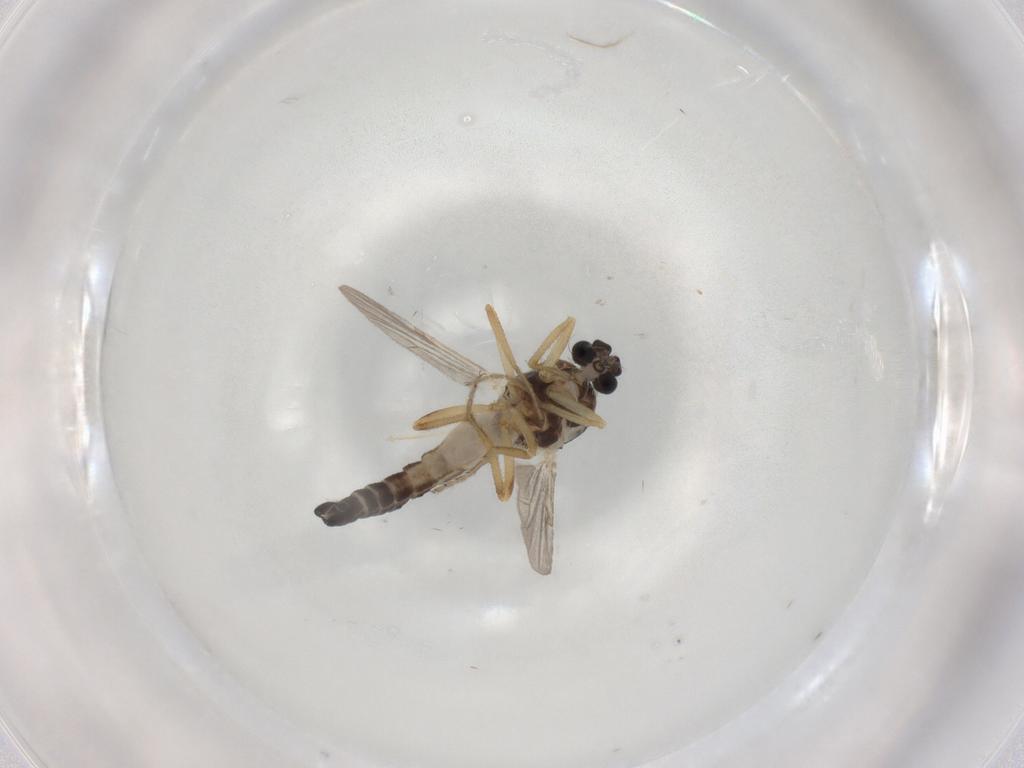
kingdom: Animalia
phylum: Arthropoda
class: Insecta
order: Diptera
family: Ceratopogonidae
